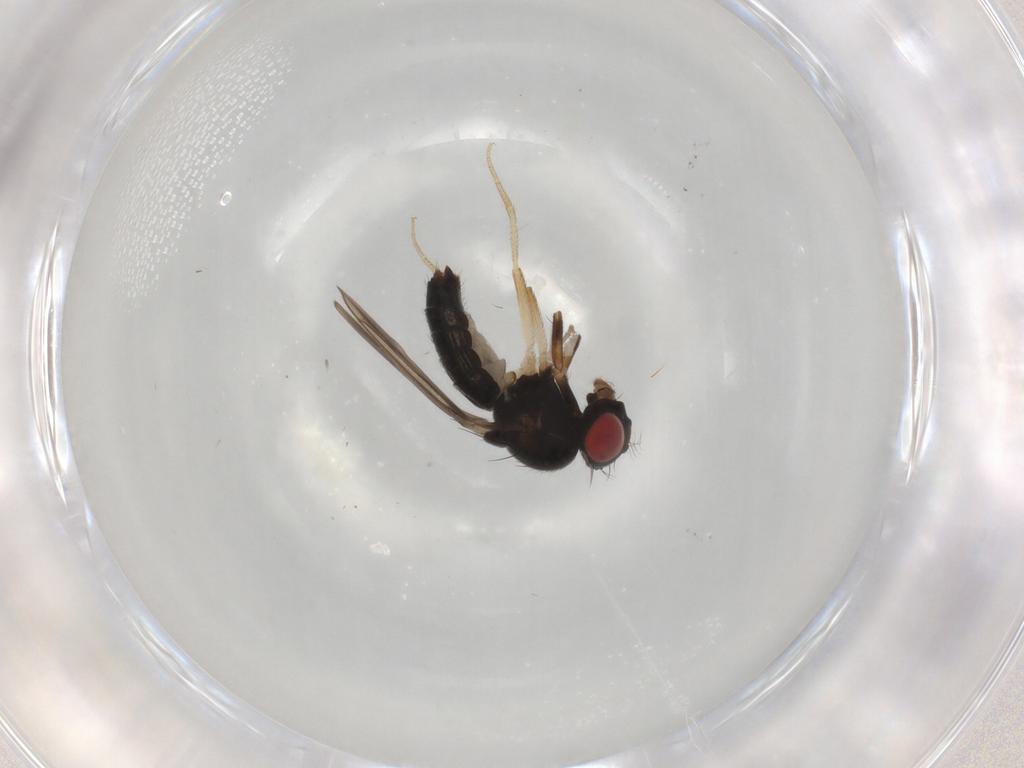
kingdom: Animalia
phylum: Arthropoda
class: Insecta
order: Diptera
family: Drosophilidae
